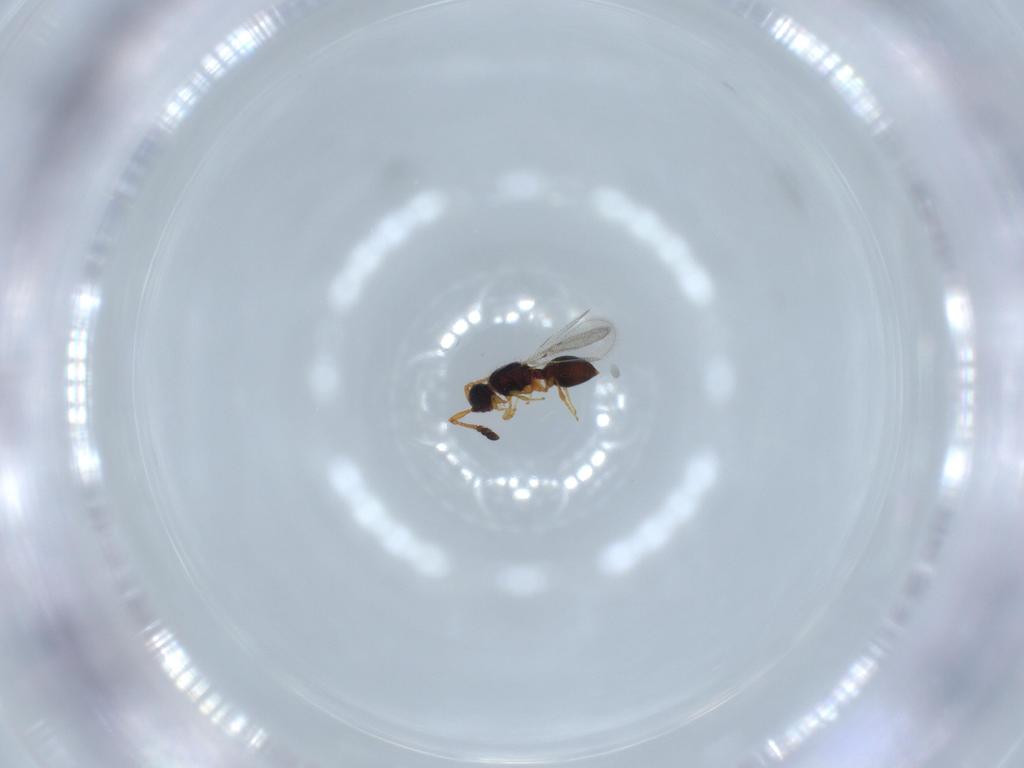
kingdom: Animalia
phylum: Arthropoda
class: Insecta
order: Hymenoptera
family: Diapriidae
